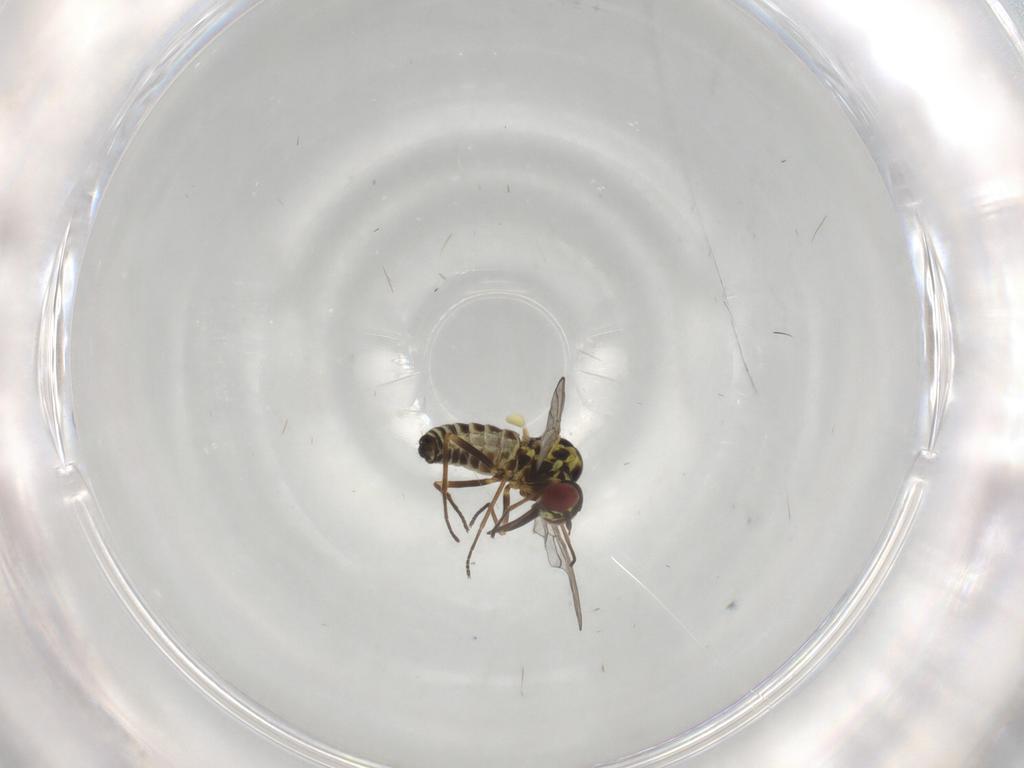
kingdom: Animalia
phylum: Arthropoda
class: Insecta
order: Diptera
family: Bombyliidae
